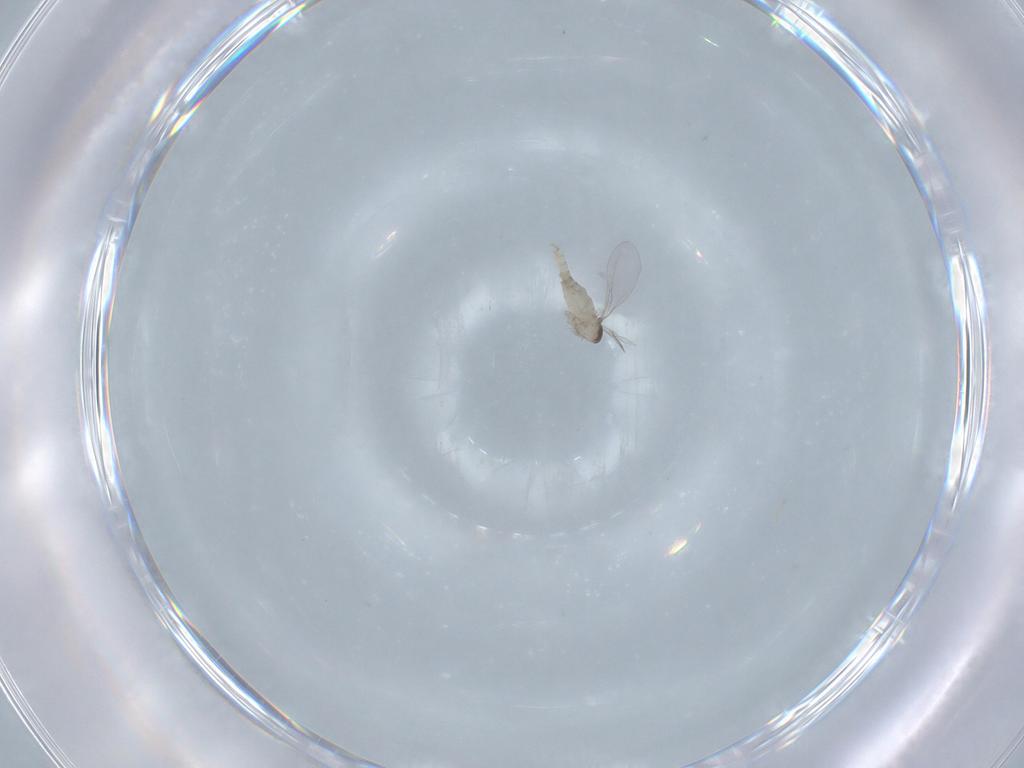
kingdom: Animalia
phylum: Arthropoda
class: Insecta
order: Diptera
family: Cecidomyiidae
